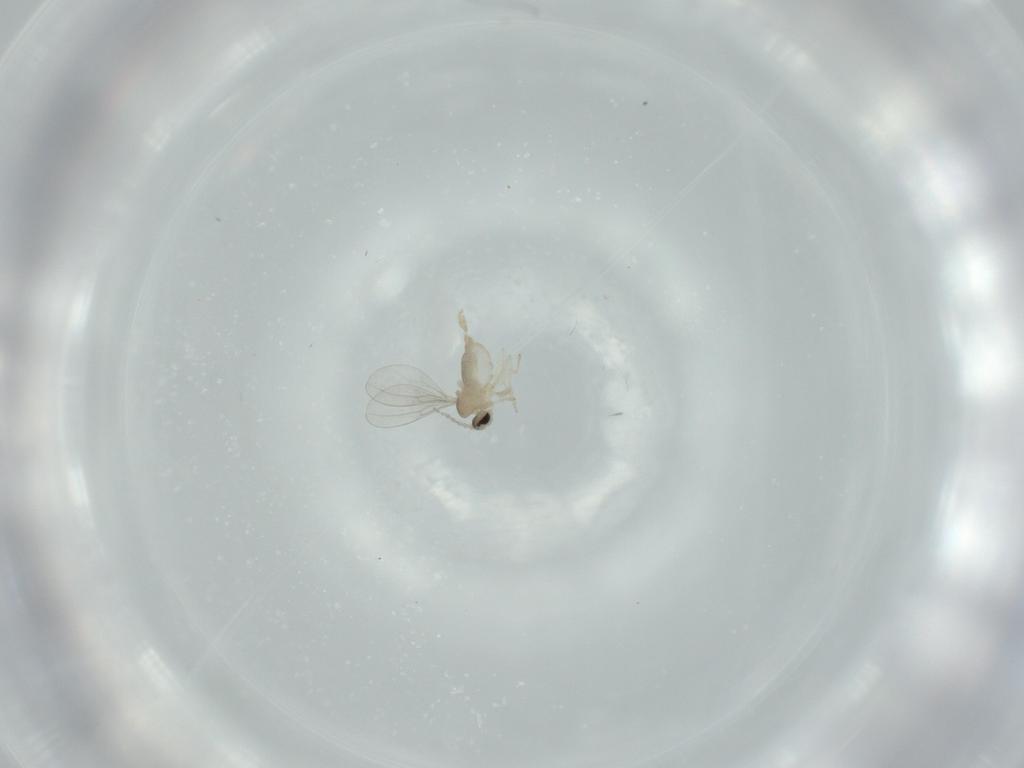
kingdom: Animalia
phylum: Arthropoda
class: Insecta
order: Diptera
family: Cecidomyiidae
